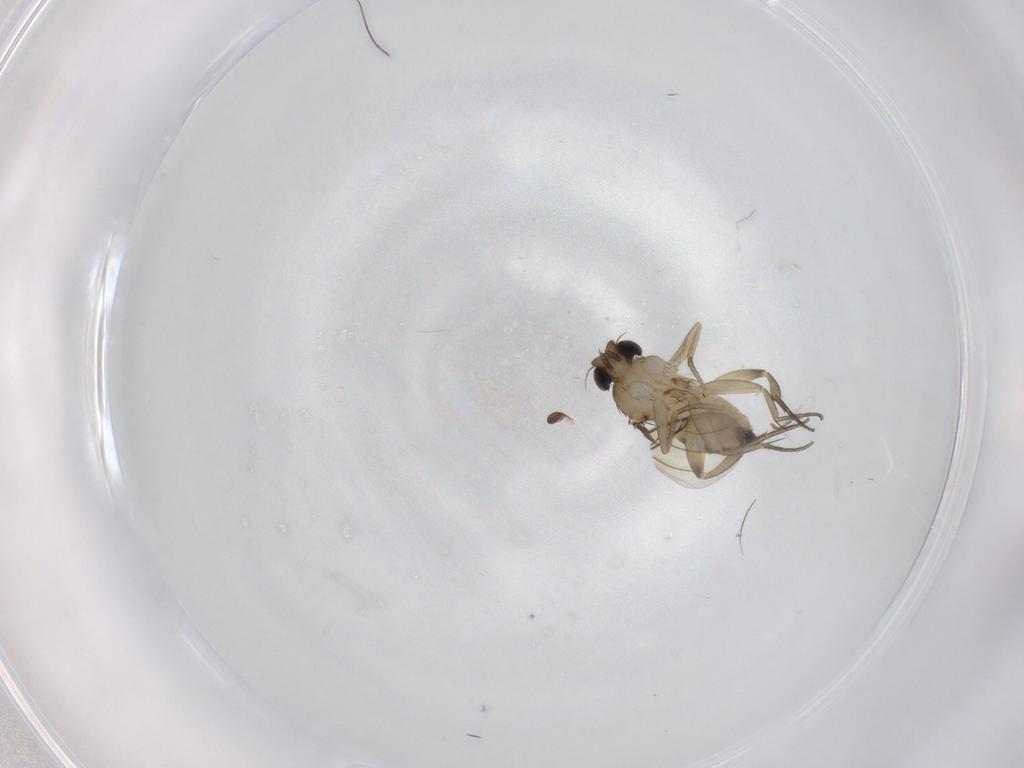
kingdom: Animalia
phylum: Arthropoda
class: Insecta
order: Diptera
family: Phoridae
